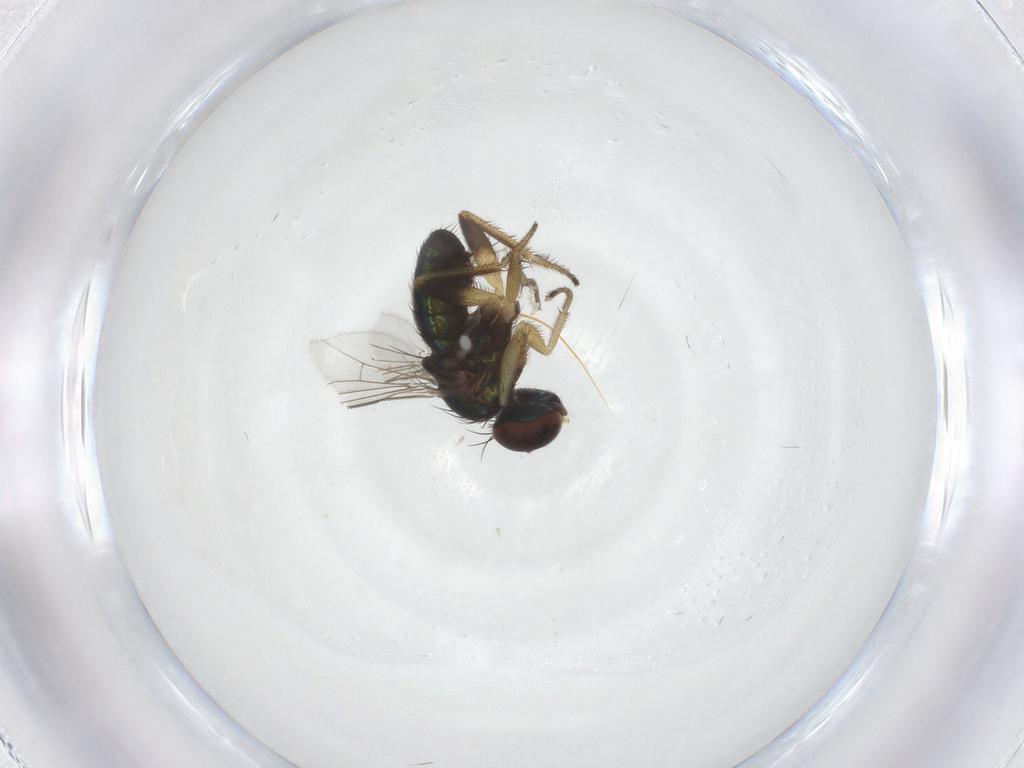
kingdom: Animalia
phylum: Arthropoda
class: Insecta
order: Diptera
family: Dolichopodidae
